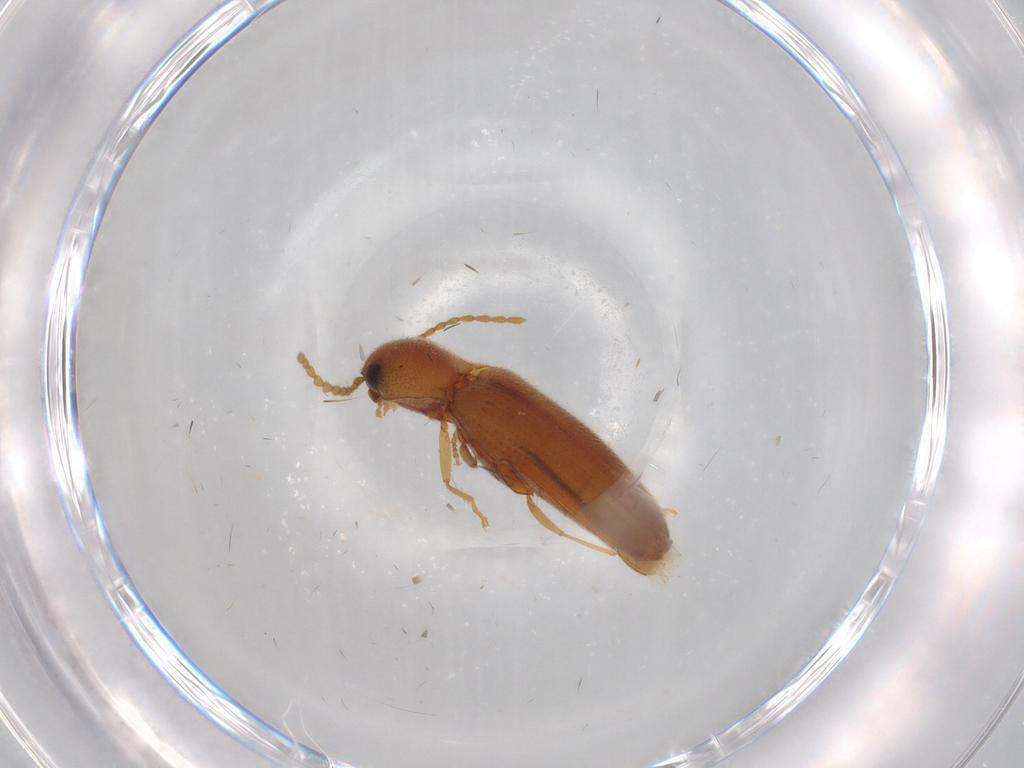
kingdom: Animalia
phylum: Arthropoda
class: Insecta
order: Coleoptera
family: Elateridae
